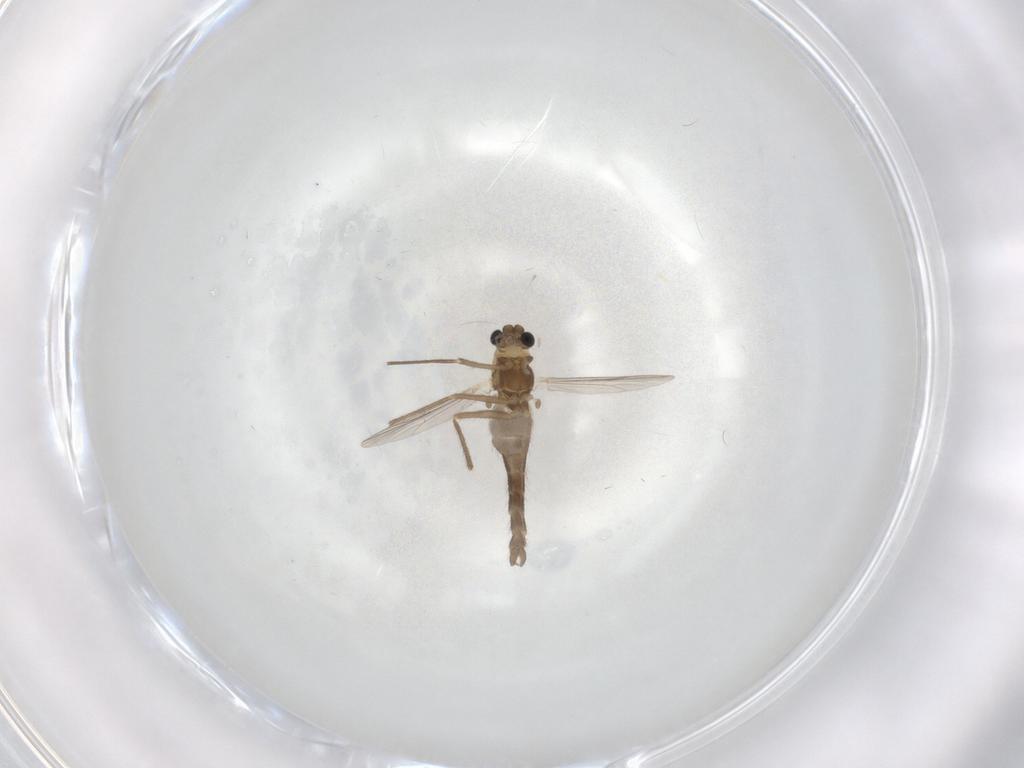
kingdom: Animalia
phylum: Arthropoda
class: Insecta
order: Diptera
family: Chironomidae
